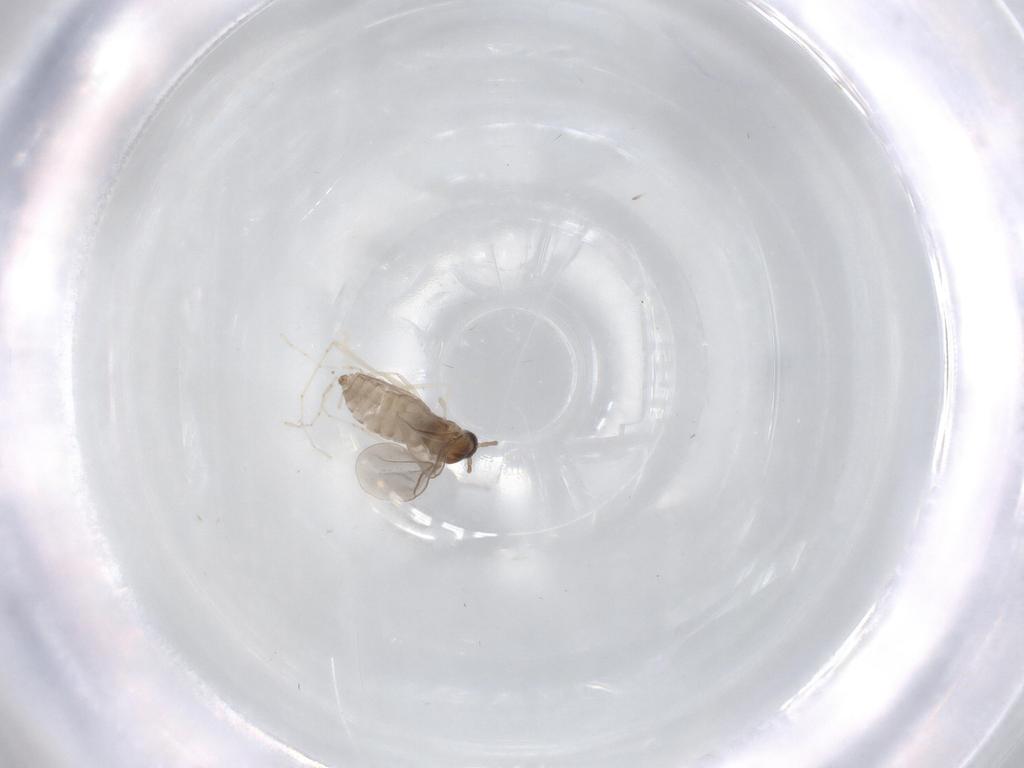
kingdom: Animalia
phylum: Arthropoda
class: Insecta
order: Diptera
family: Cecidomyiidae
